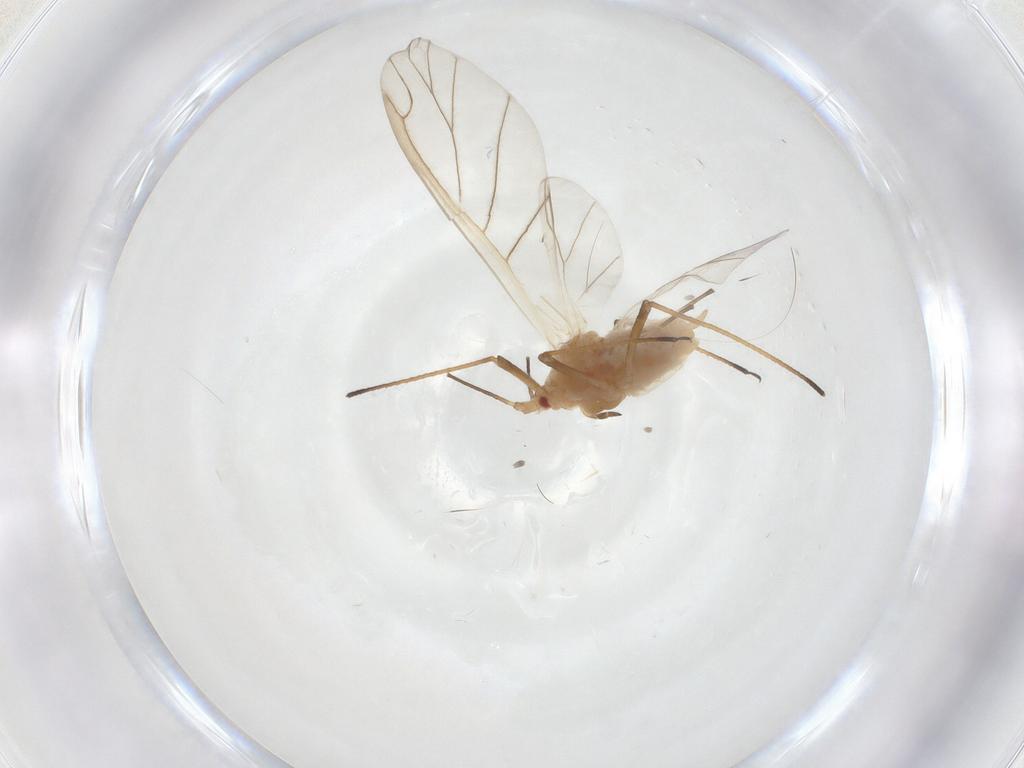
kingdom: Animalia
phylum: Arthropoda
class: Insecta
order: Hemiptera
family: Aphididae
